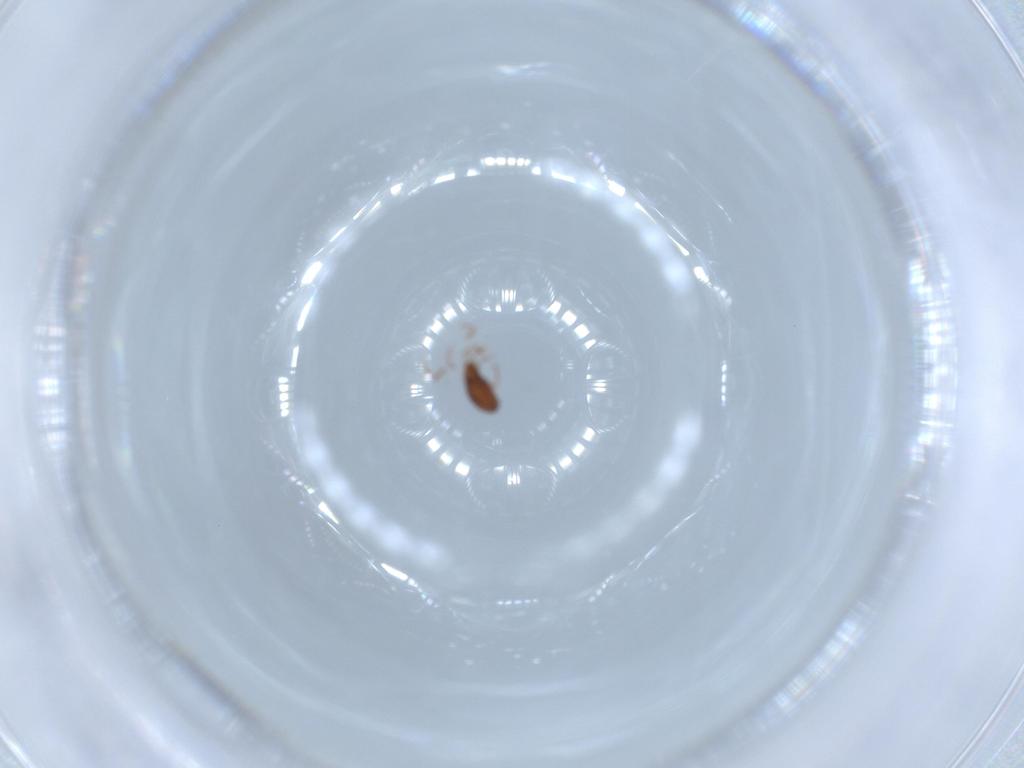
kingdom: Animalia
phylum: Arthropoda
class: Arachnida
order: Sarcoptiformes
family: Oribatulidae
